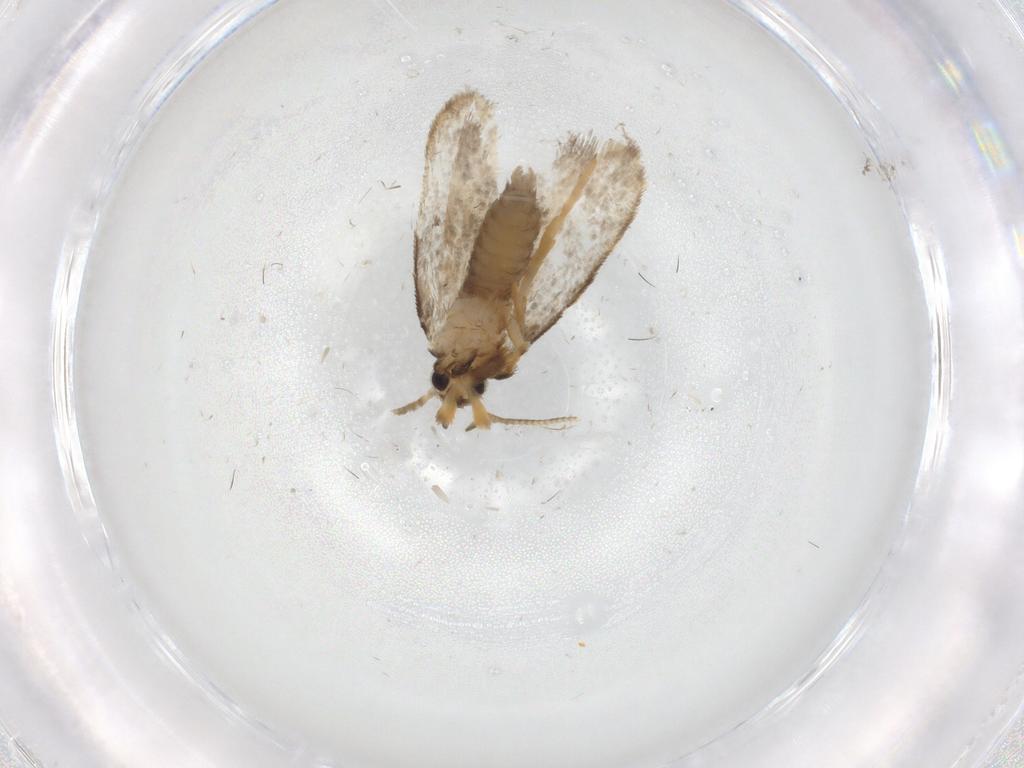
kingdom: Animalia
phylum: Arthropoda
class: Insecta
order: Lepidoptera
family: Psychidae
